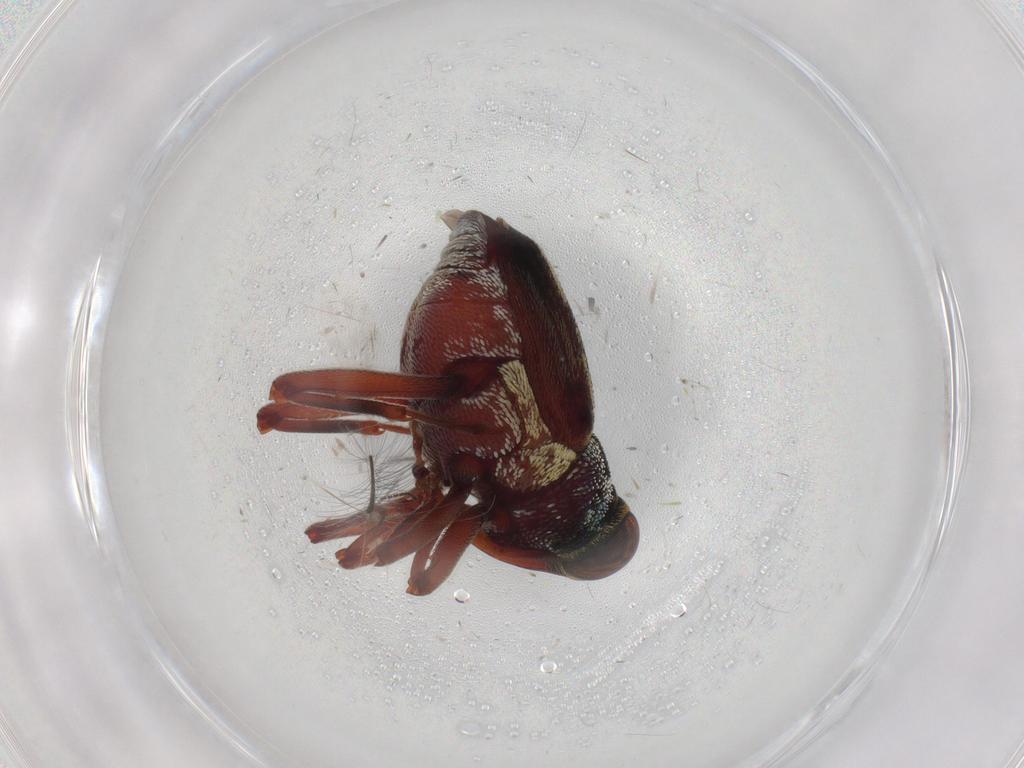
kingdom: Animalia
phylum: Arthropoda
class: Insecta
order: Coleoptera
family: Curculionidae
